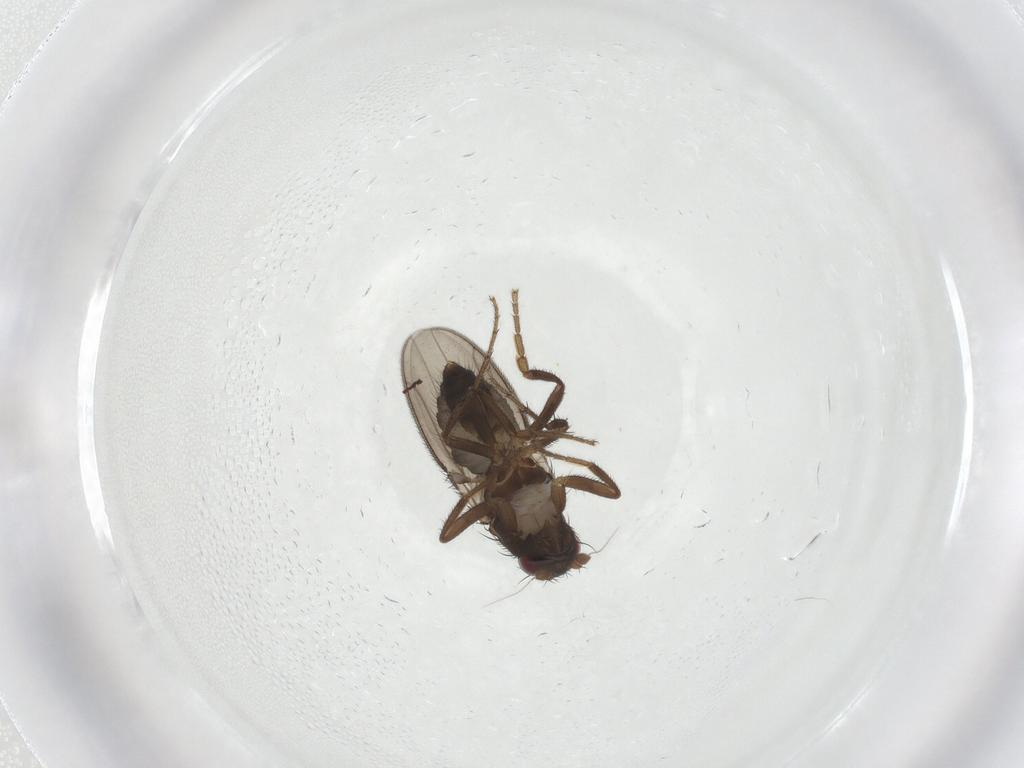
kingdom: Animalia
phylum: Arthropoda
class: Insecta
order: Diptera
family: Sphaeroceridae
